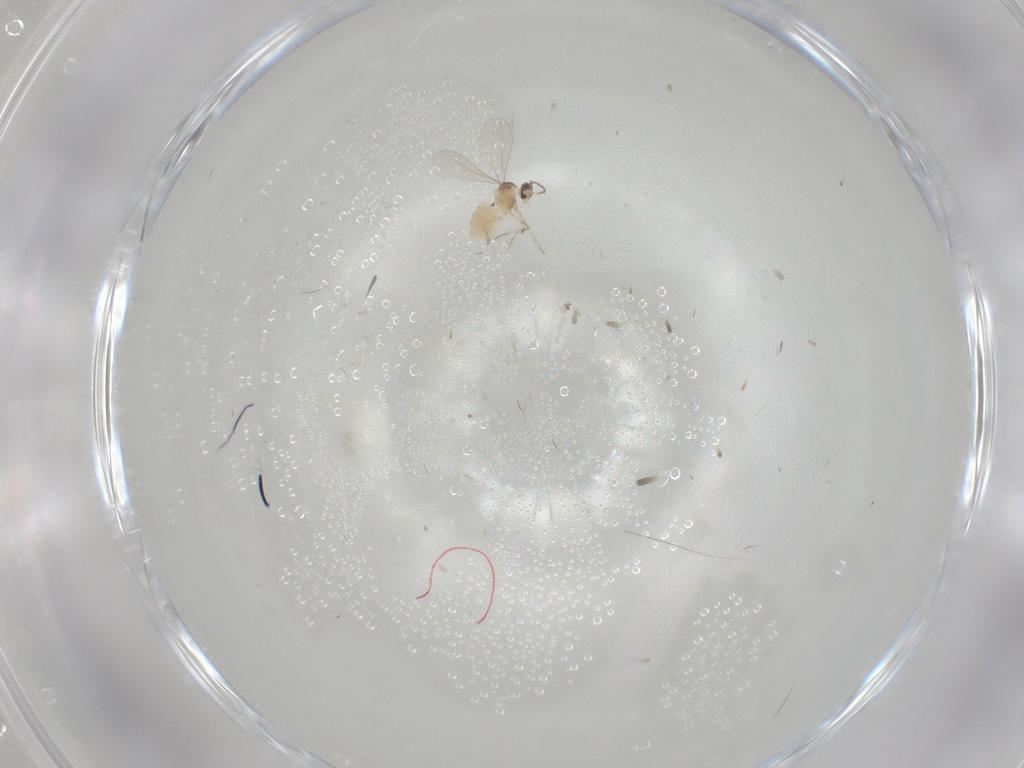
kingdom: Animalia
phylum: Arthropoda
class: Insecta
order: Diptera
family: Cecidomyiidae
